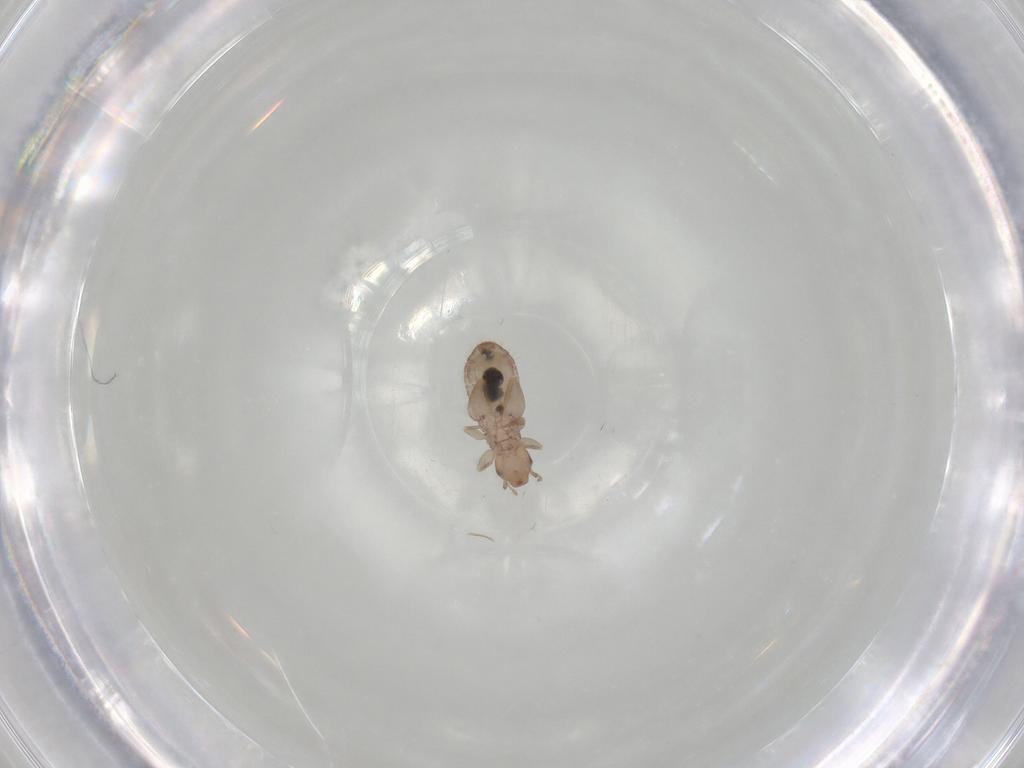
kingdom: Animalia
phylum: Arthropoda
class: Insecta
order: Psocodea
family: Liposcelididae
